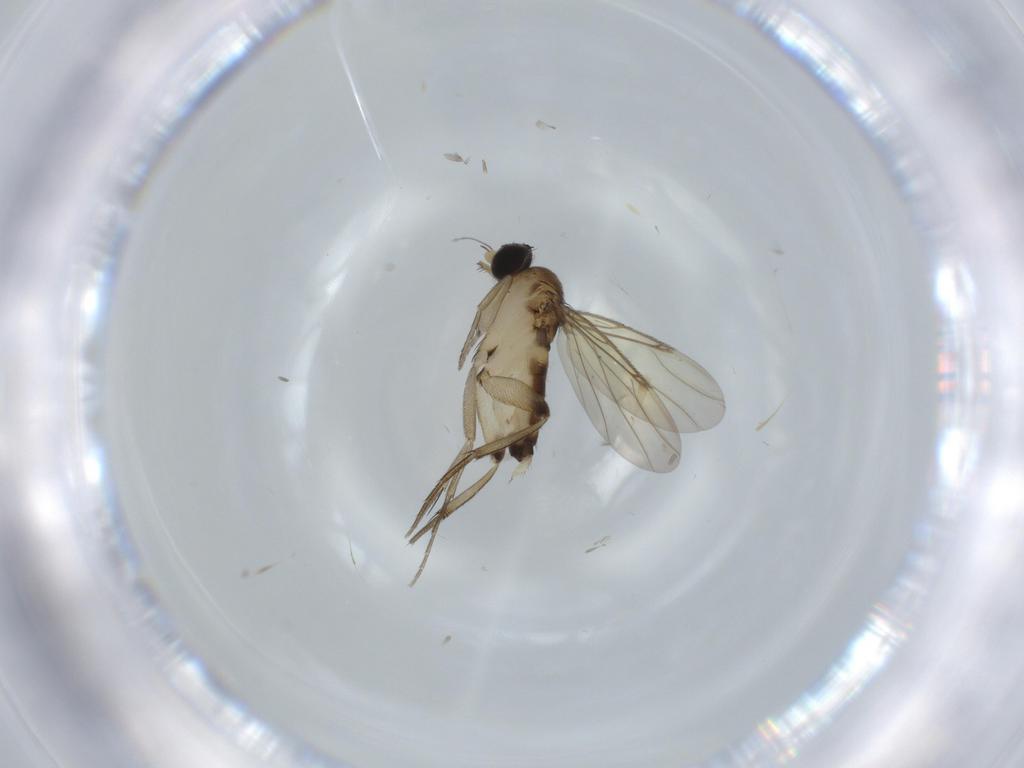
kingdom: Animalia
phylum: Arthropoda
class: Insecta
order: Diptera
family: Phoridae
